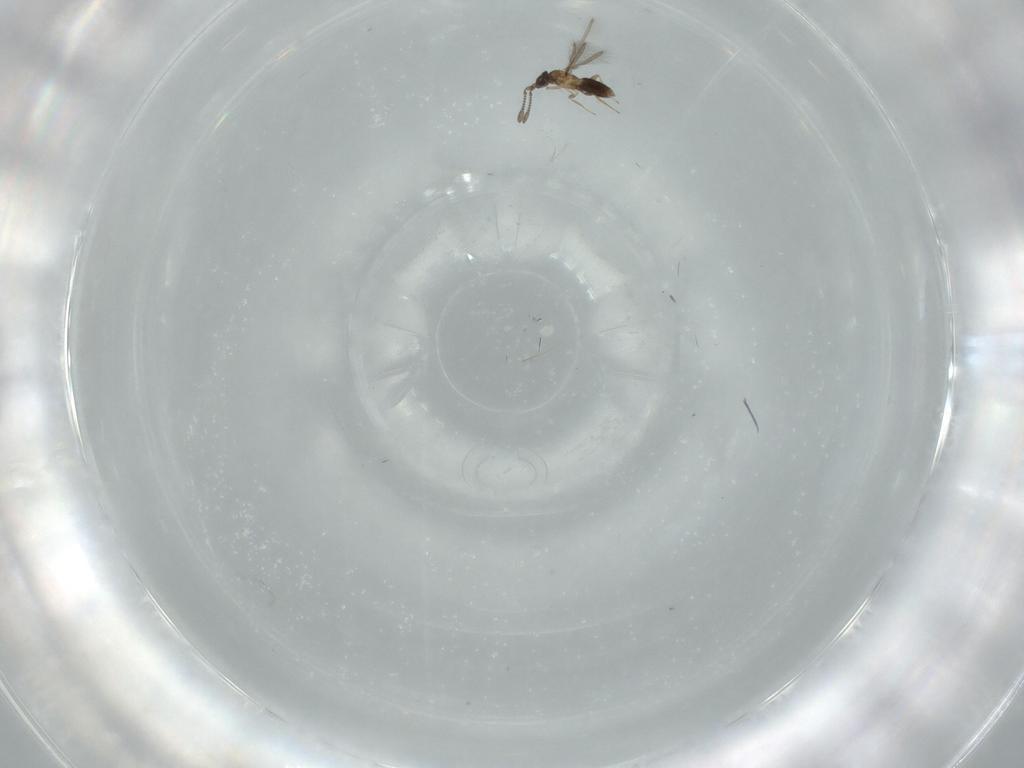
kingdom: Animalia
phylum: Arthropoda
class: Insecta
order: Hymenoptera
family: Mymaridae
